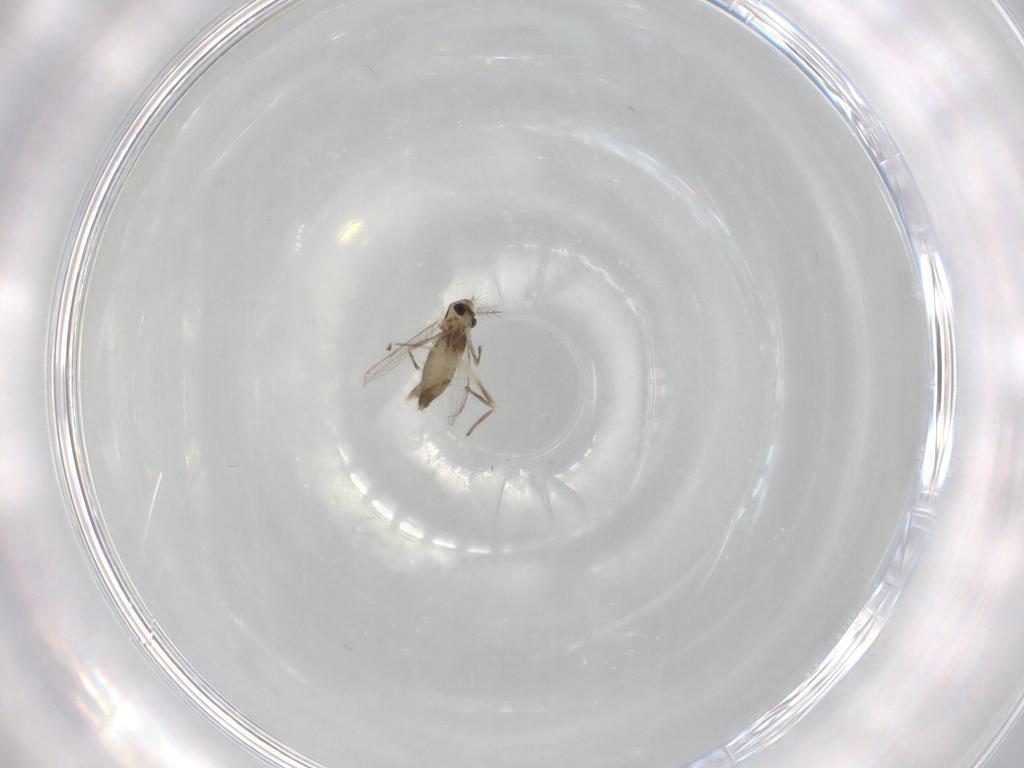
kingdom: Animalia
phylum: Arthropoda
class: Insecta
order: Diptera
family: Chironomidae
